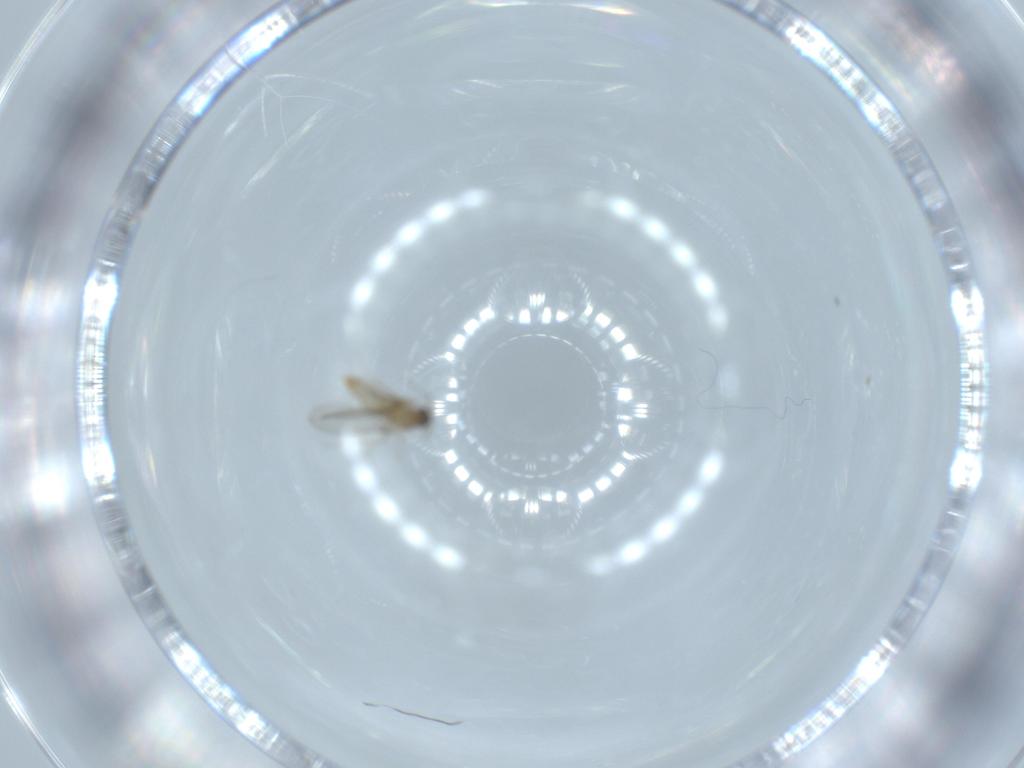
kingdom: Animalia
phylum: Arthropoda
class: Insecta
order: Diptera
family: Cecidomyiidae
